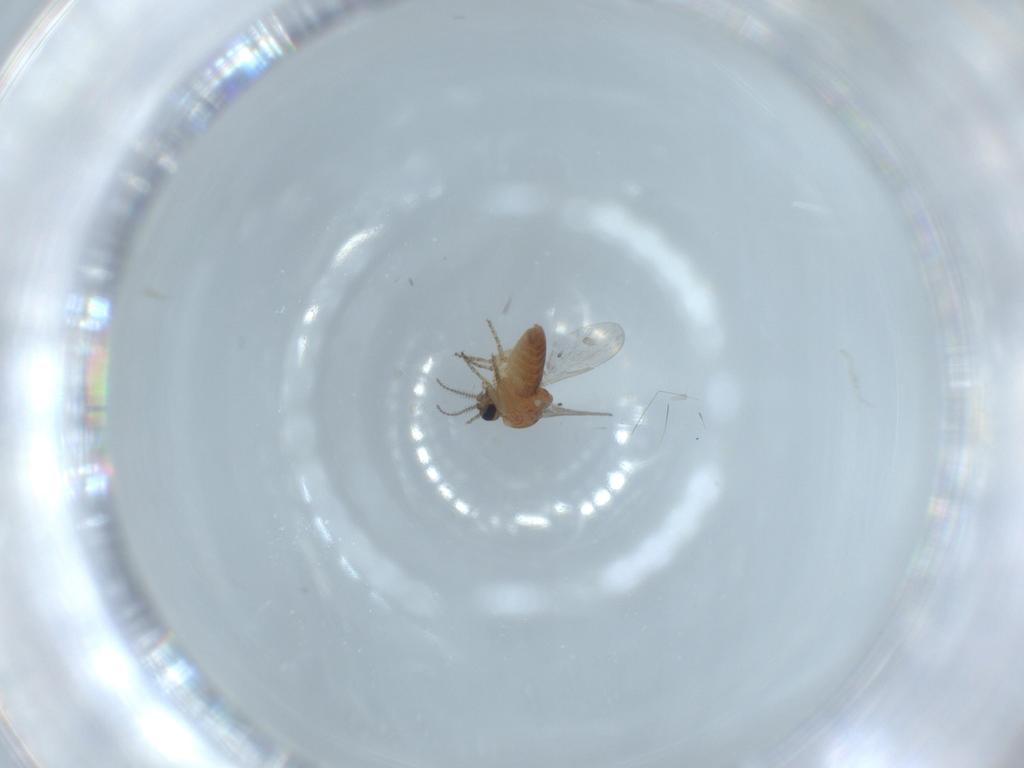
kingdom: Animalia
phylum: Arthropoda
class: Insecta
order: Diptera
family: Ceratopogonidae
